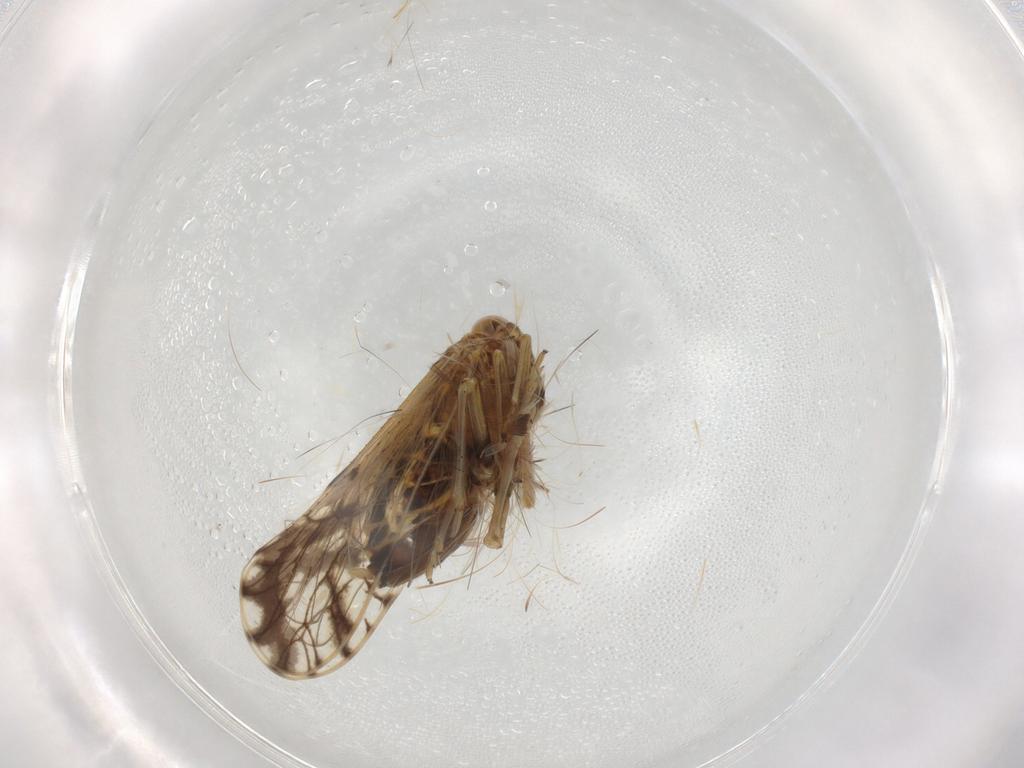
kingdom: Animalia
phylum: Arthropoda
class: Insecta
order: Hemiptera
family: Delphacidae
